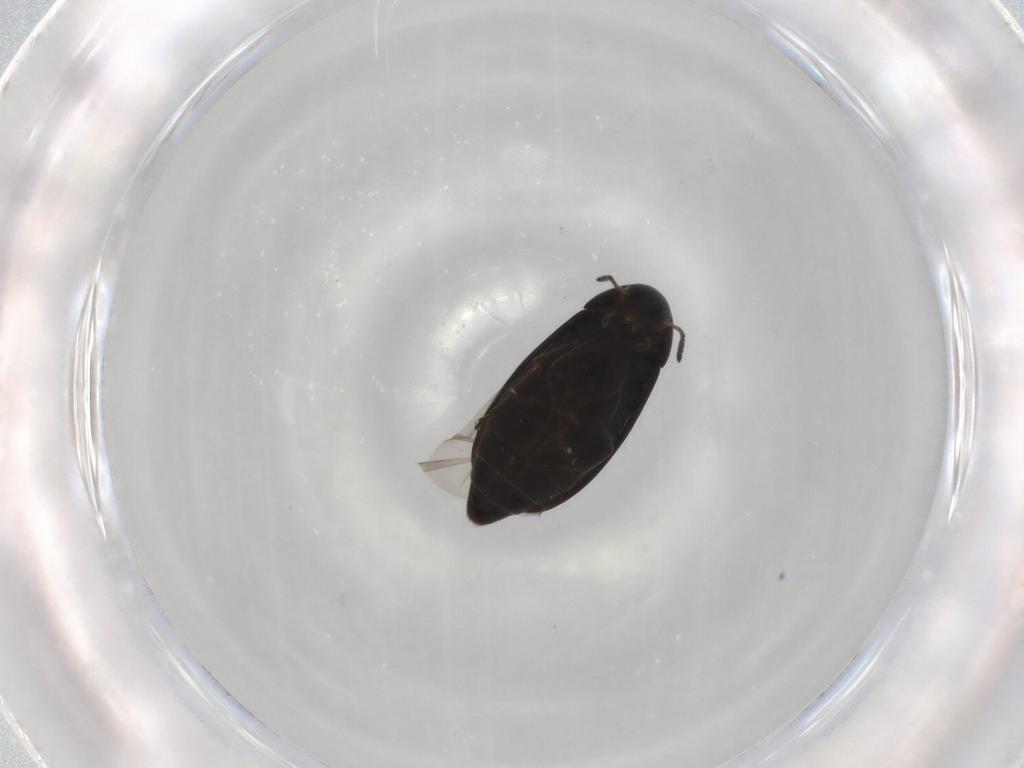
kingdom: Animalia
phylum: Arthropoda
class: Insecta
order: Coleoptera
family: Scraptiidae
